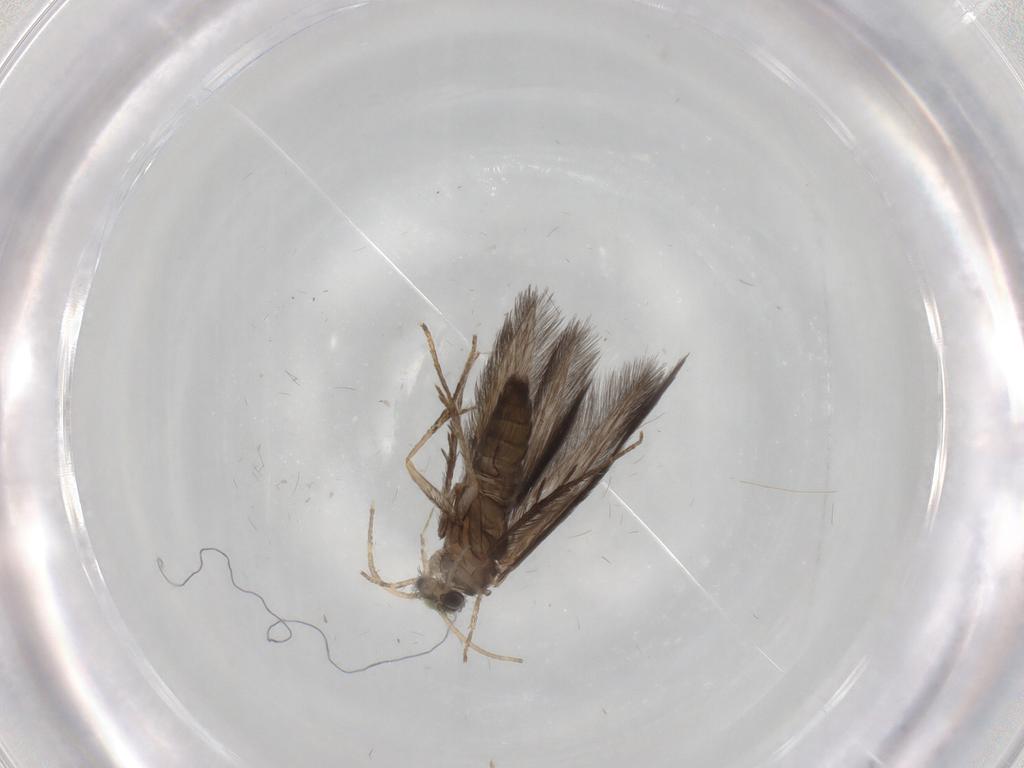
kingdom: Animalia
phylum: Arthropoda
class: Insecta
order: Trichoptera
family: Hydroptilidae
